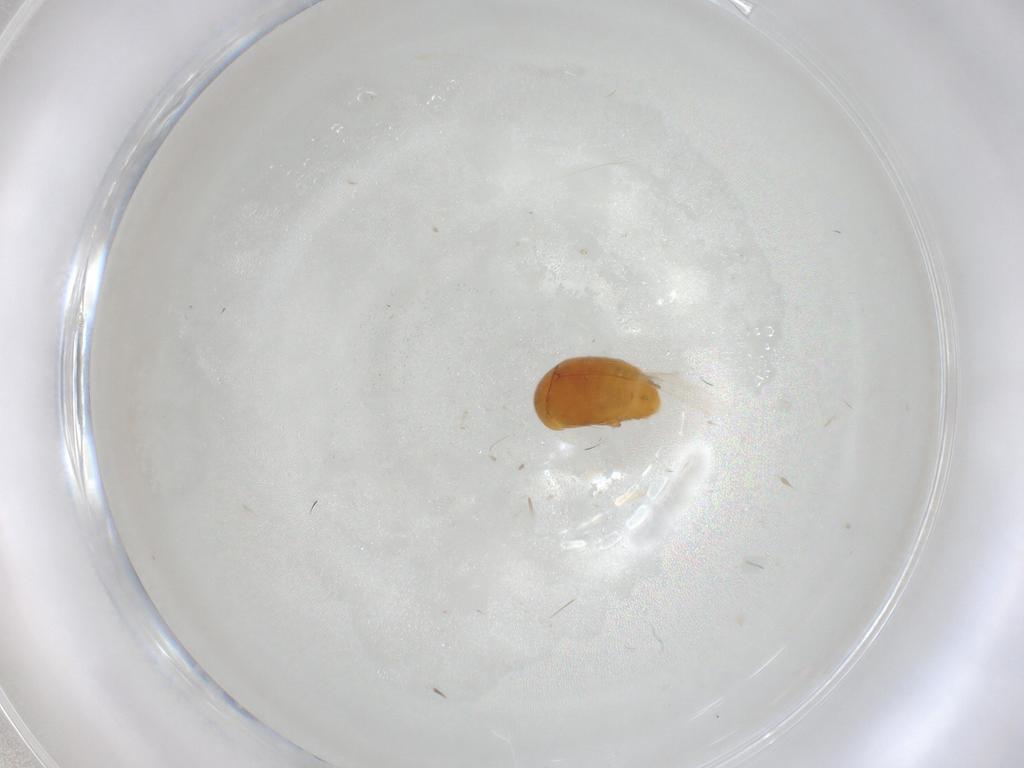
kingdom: Animalia
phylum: Arthropoda
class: Insecta
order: Coleoptera
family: Corylophidae
